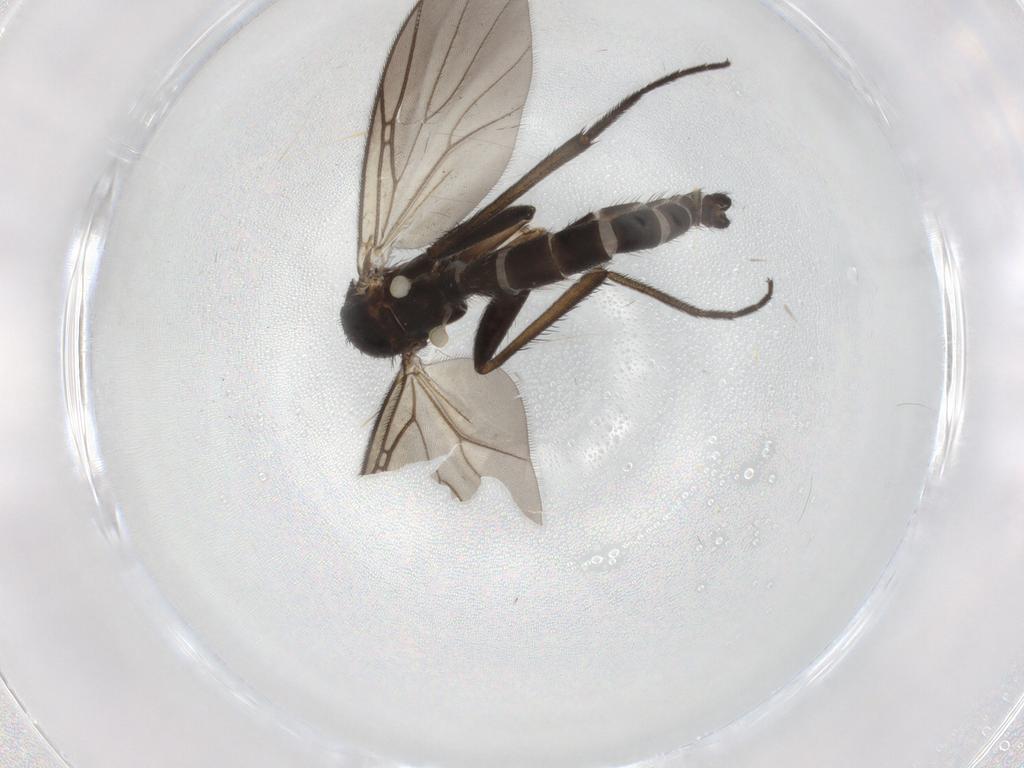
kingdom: Animalia
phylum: Arthropoda
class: Insecta
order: Diptera
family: Mycetophilidae
